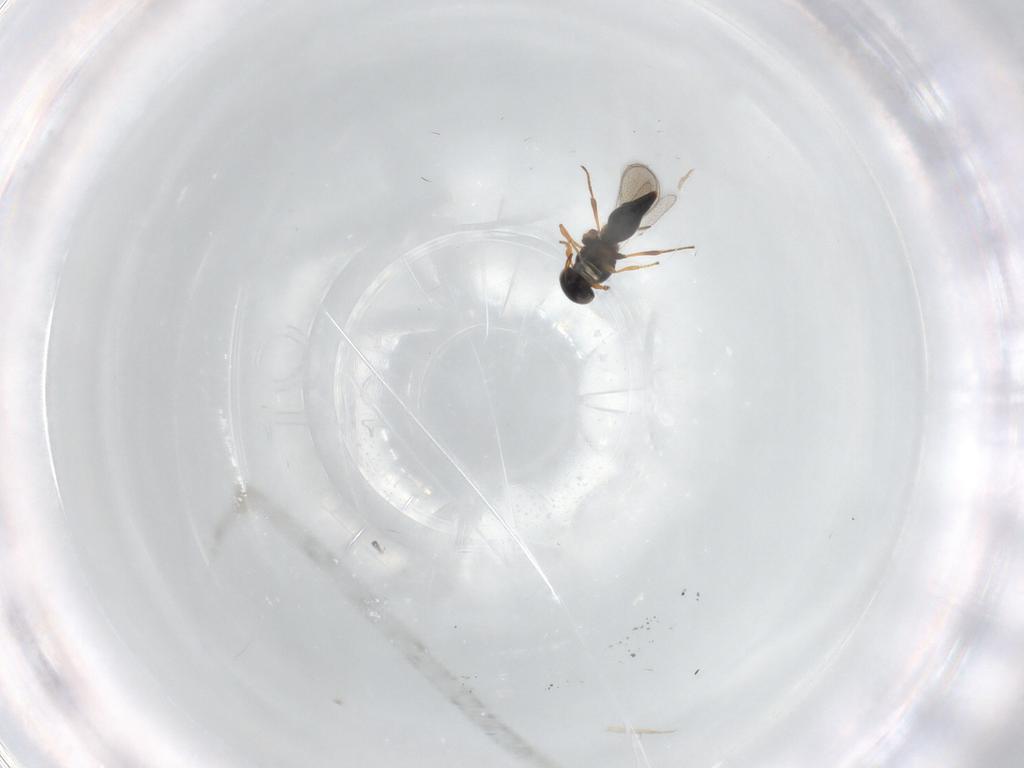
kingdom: Animalia
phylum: Arthropoda
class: Insecta
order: Hymenoptera
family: Platygastridae
